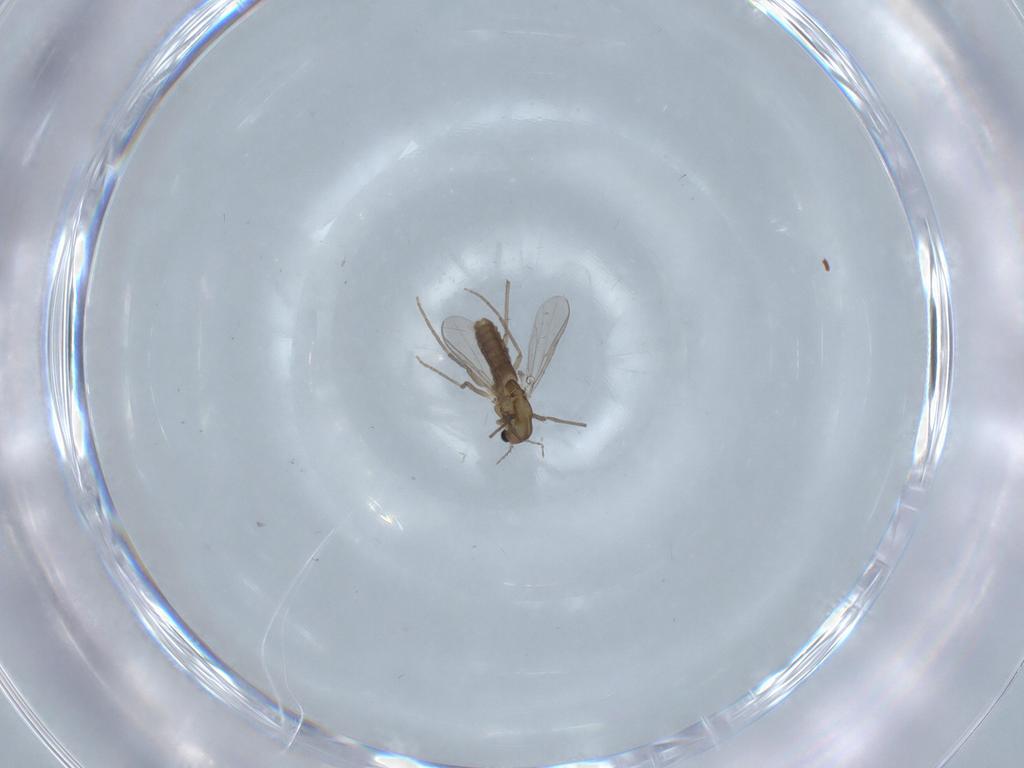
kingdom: Animalia
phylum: Arthropoda
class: Insecta
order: Diptera
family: Chironomidae
